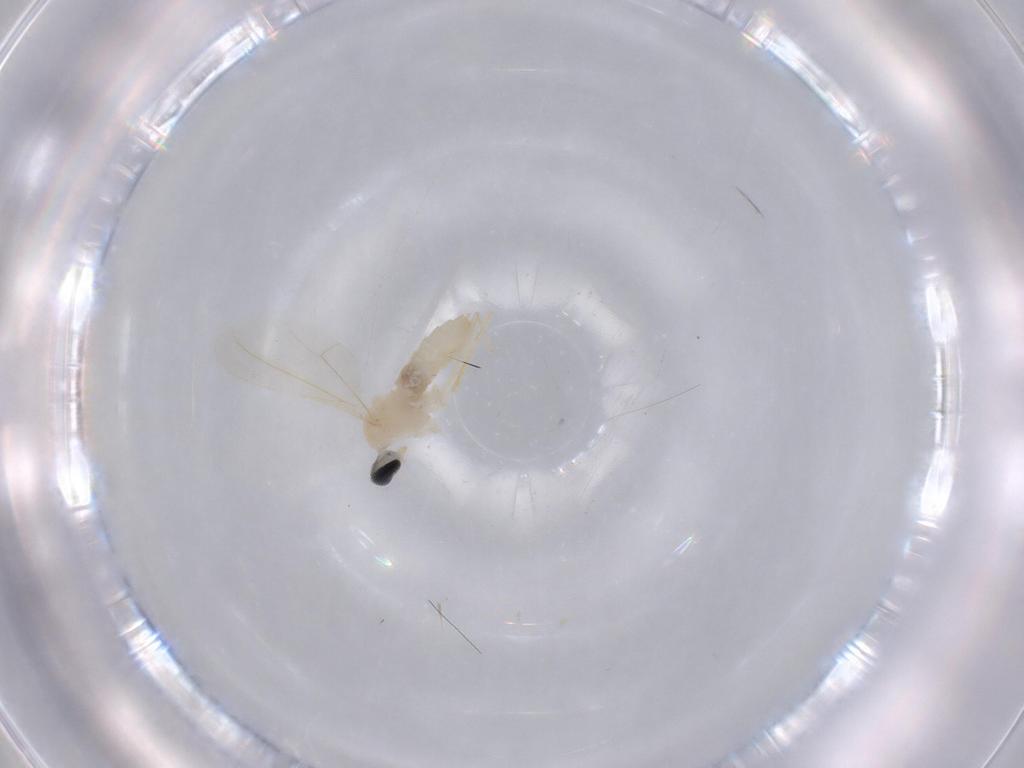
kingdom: Animalia
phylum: Arthropoda
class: Insecta
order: Diptera
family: Cecidomyiidae
